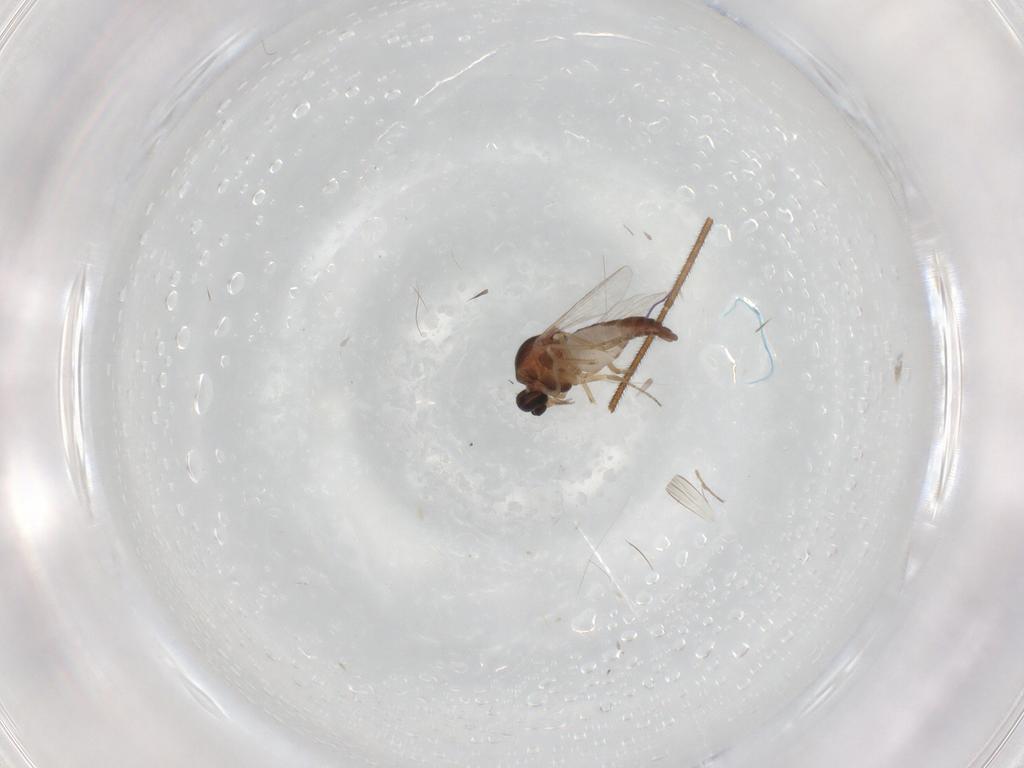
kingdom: Animalia
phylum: Arthropoda
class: Insecta
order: Diptera
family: Ceratopogonidae
